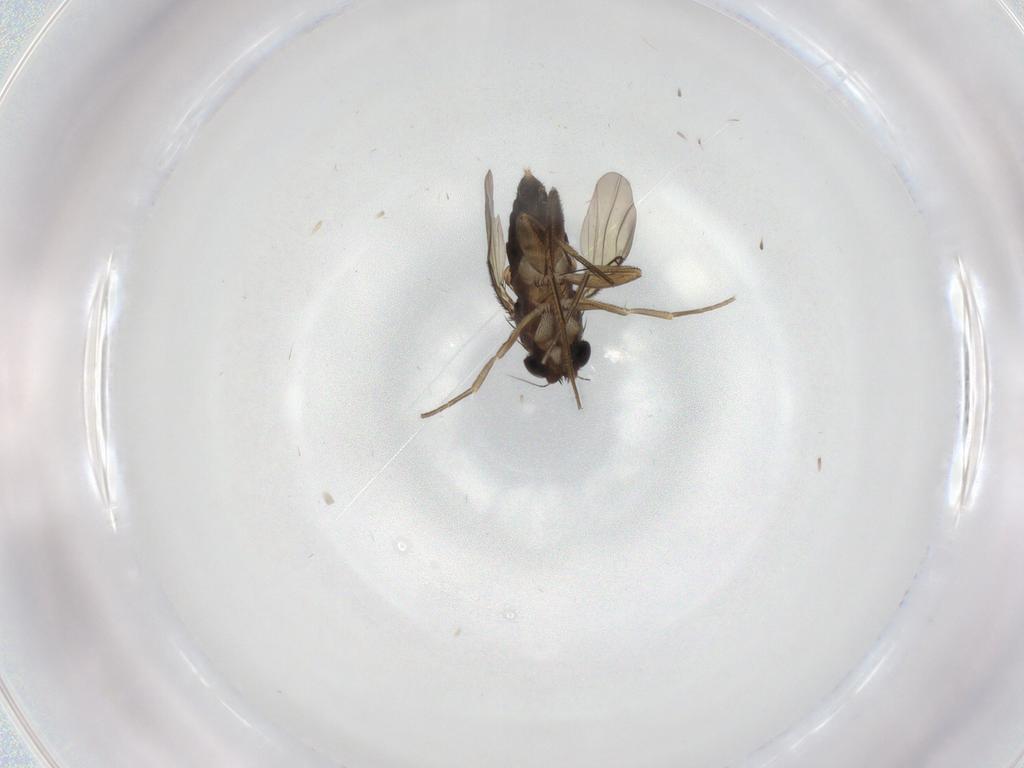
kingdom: Animalia
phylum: Arthropoda
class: Insecta
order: Diptera
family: Phoridae
